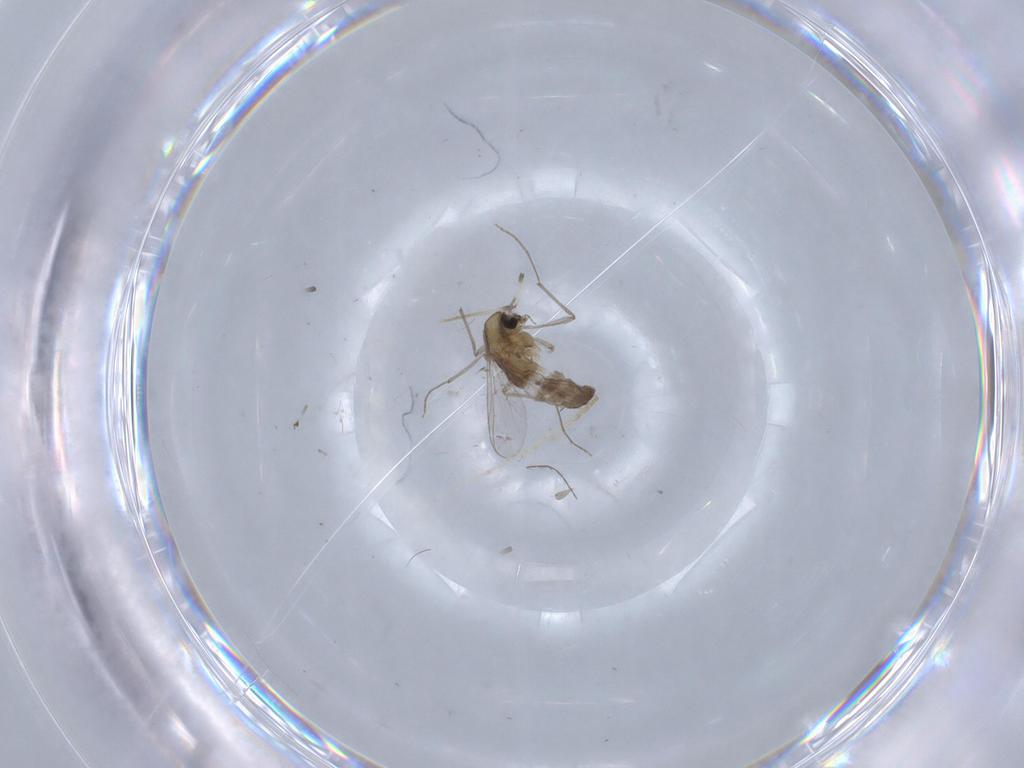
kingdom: Animalia
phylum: Arthropoda
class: Insecta
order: Diptera
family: Chironomidae
